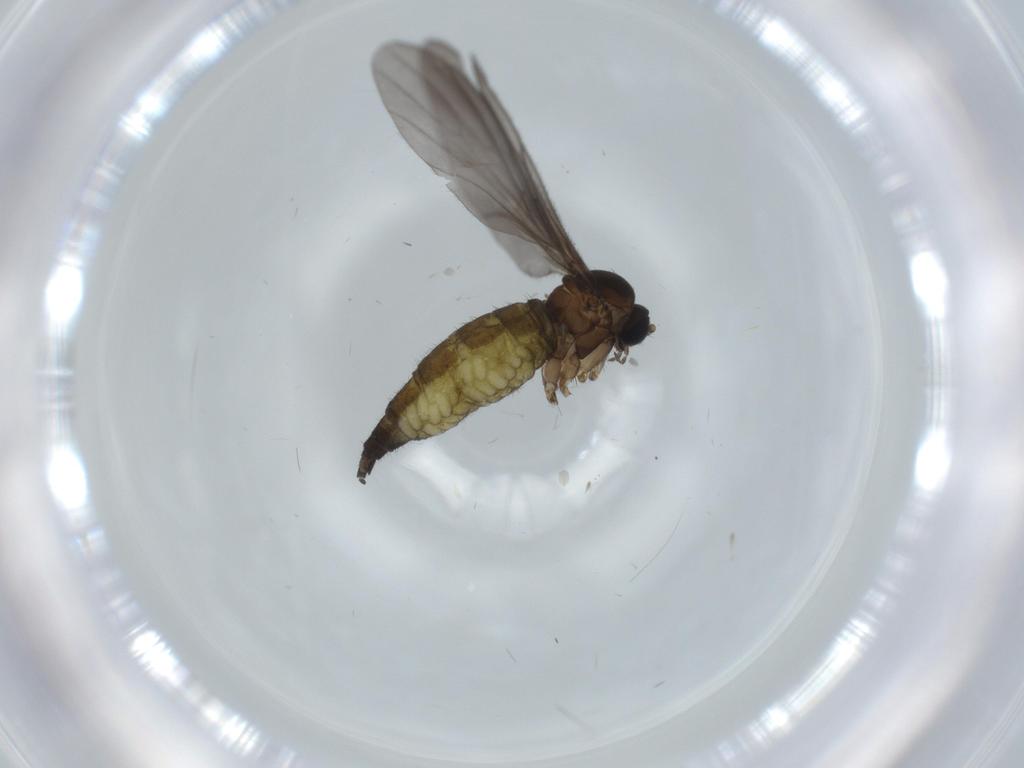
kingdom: Animalia
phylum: Arthropoda
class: Insecta
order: Diptera
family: Sciaridae
